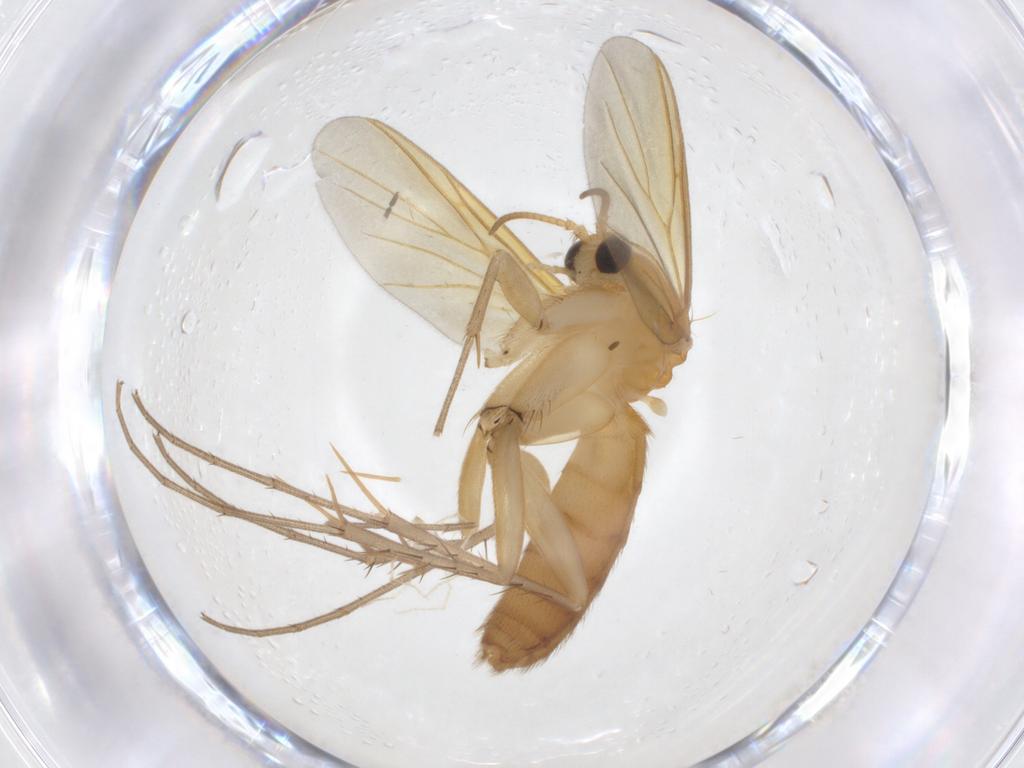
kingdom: Animalia
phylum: Arthropoda
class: Insecta
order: Diptera
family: Mycetophilidae
